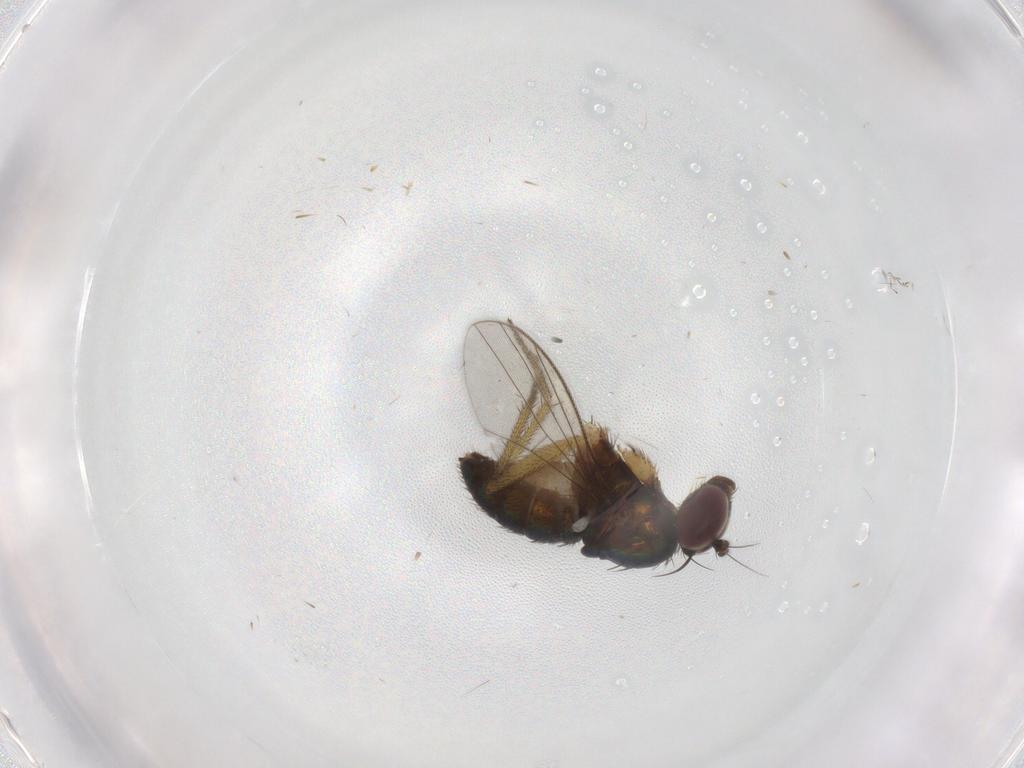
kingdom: Animalia
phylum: Arthropoda
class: Insecta
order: Diptera
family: Dolichopodidae
